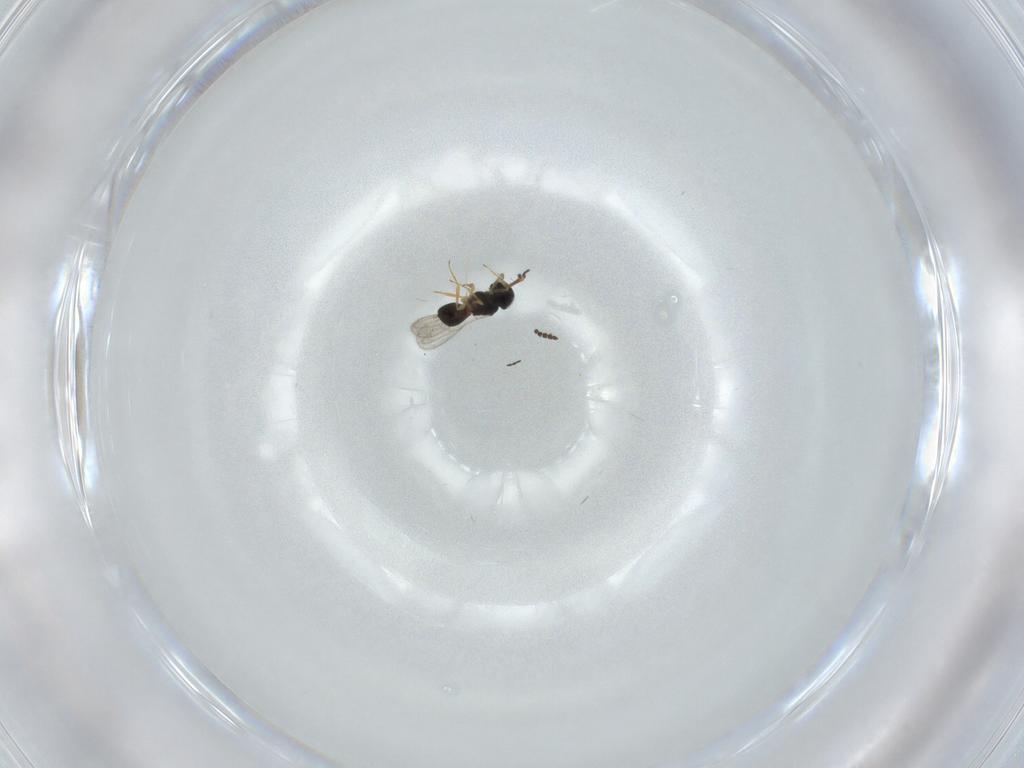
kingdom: Animalia
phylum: Arthropoda
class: Insecta
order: Hymenoptera
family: Scelionidae
